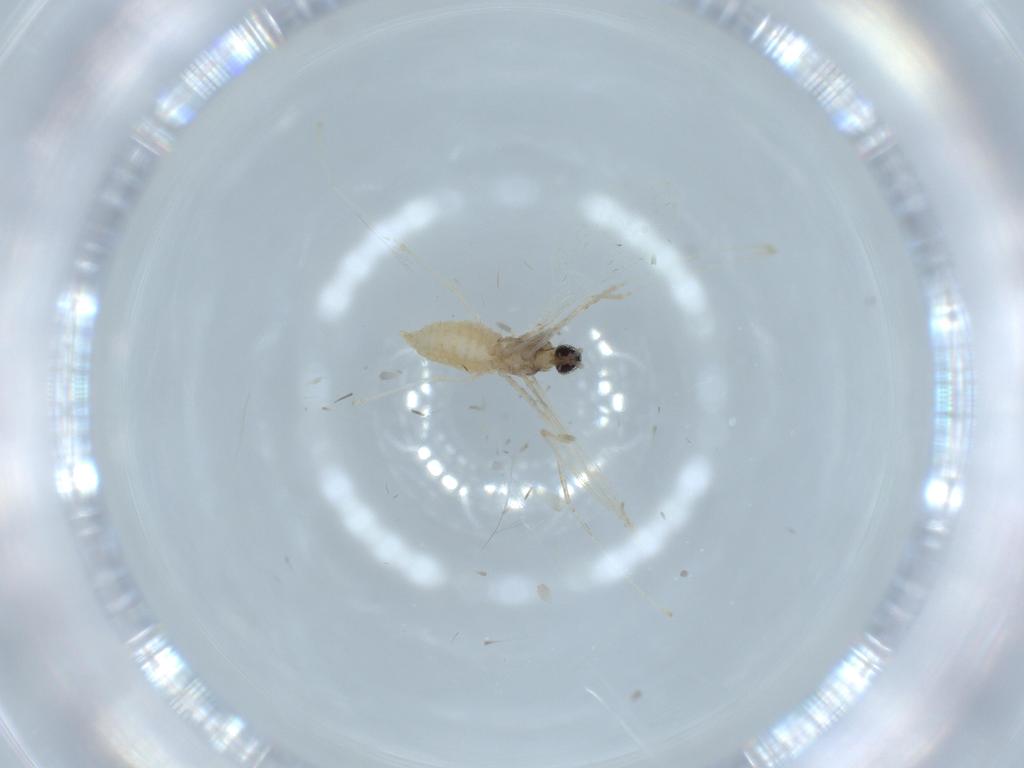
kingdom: Animalia
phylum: Arthropoda
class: Insecta
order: Diptera
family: Cecidomyiidae
